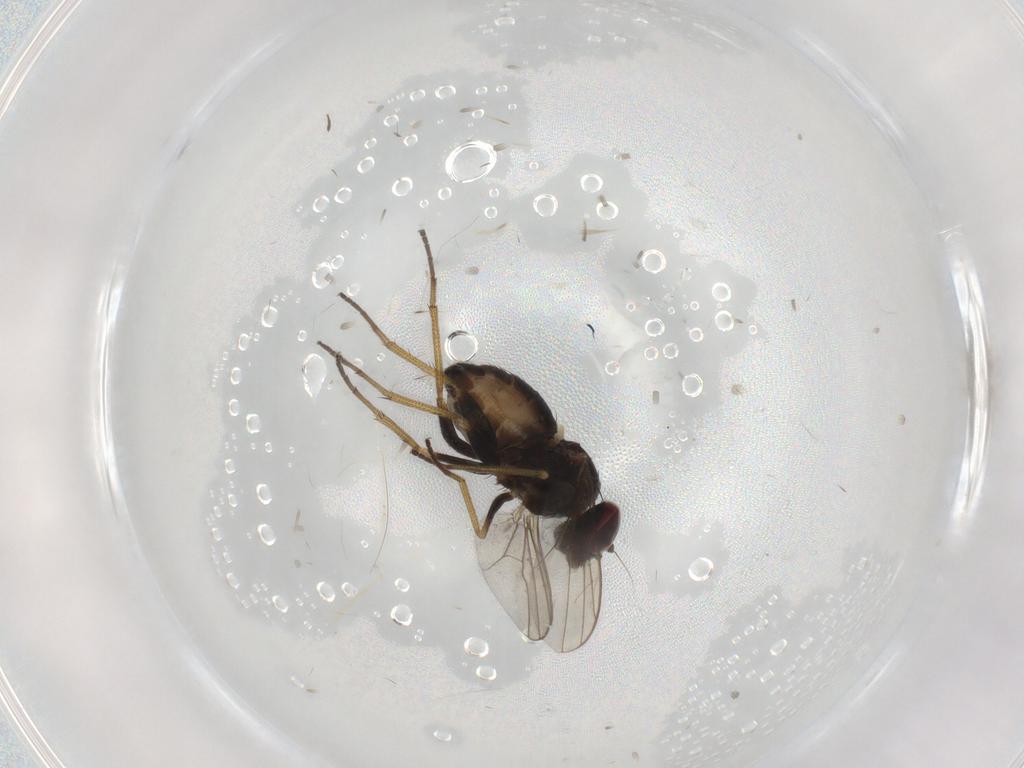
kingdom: Animalia
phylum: Arthropoda
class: Insecta
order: Diptera
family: Dolichopodidae
